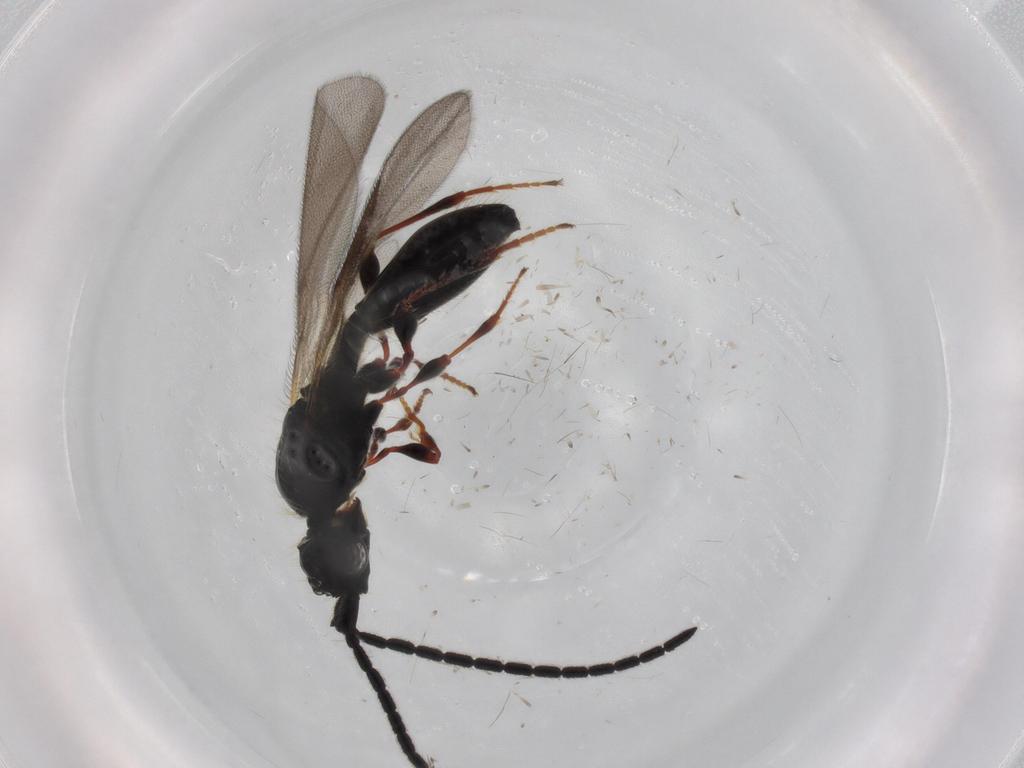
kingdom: Animalia
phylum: Arthropoda
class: Insecta
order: Hymenoptera
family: Diapriidae
